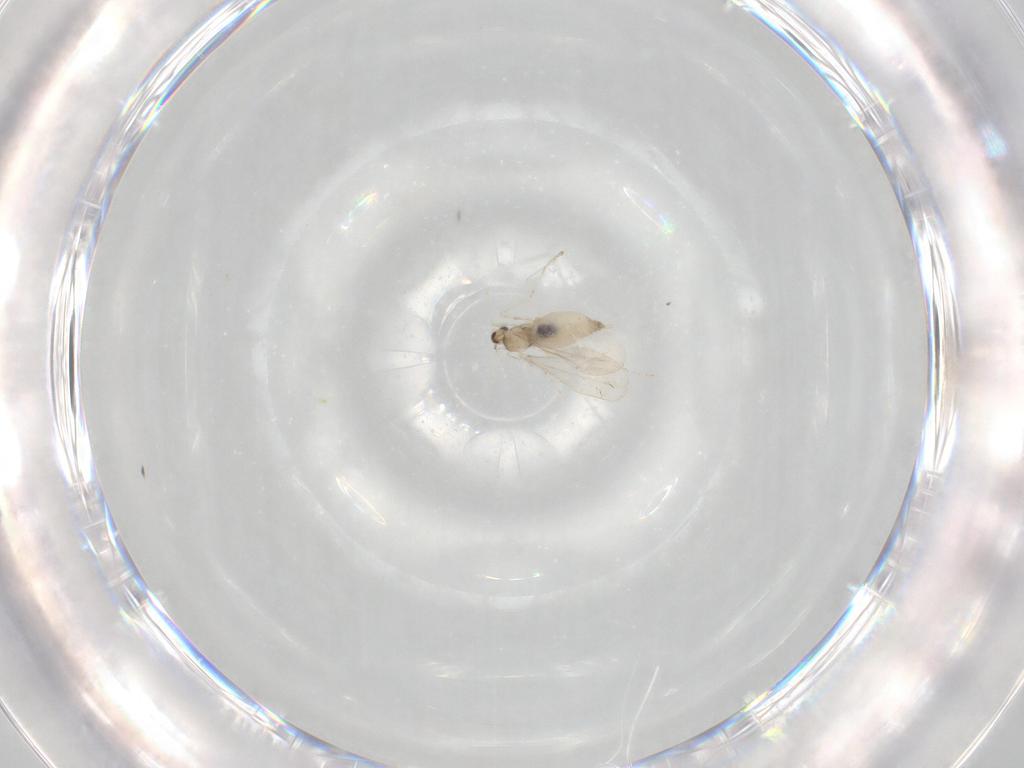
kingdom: Animalia
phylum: Arthropoda
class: Insecta
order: Diptera
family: Cecidomyiidae
